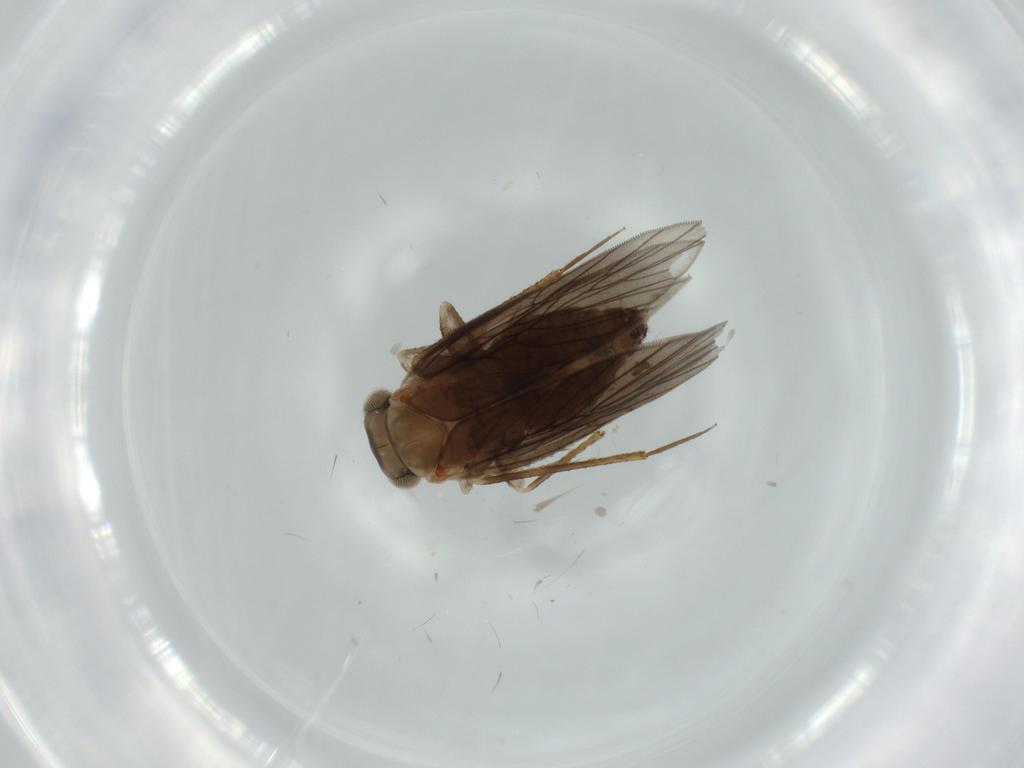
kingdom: Animalia
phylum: Arthropoda
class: Insecta
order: Psocodea
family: Lepidopsocidae
